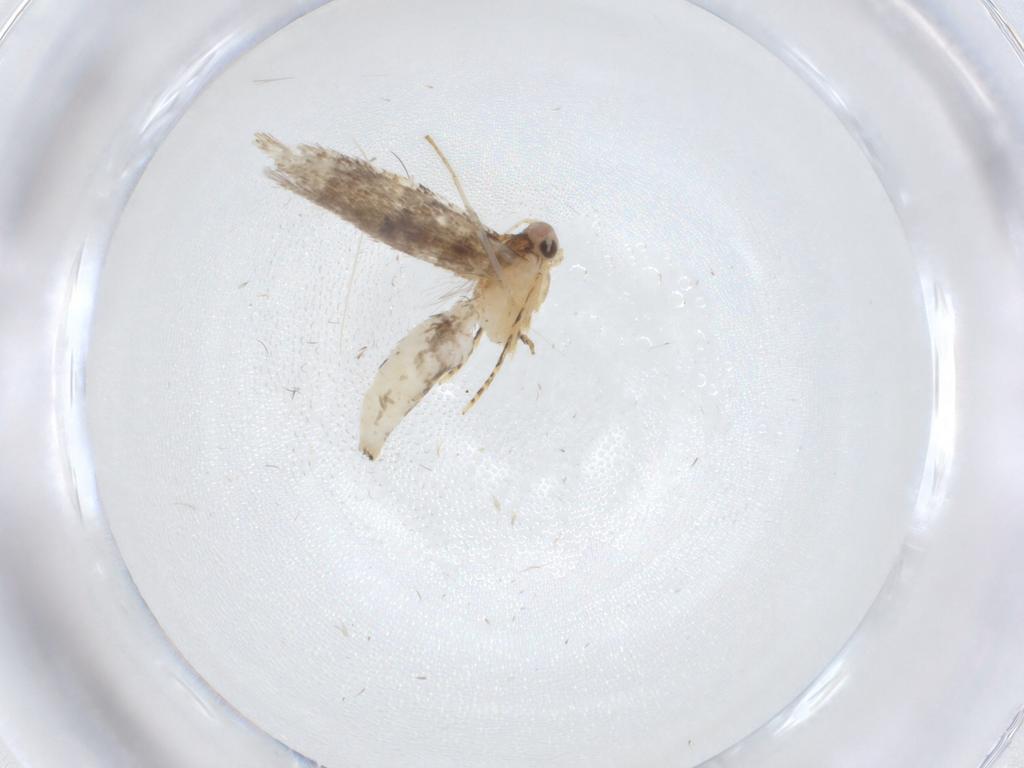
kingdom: Animalia
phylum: Arthropoda
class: Insecta
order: Lepidoptera
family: Tineidae
